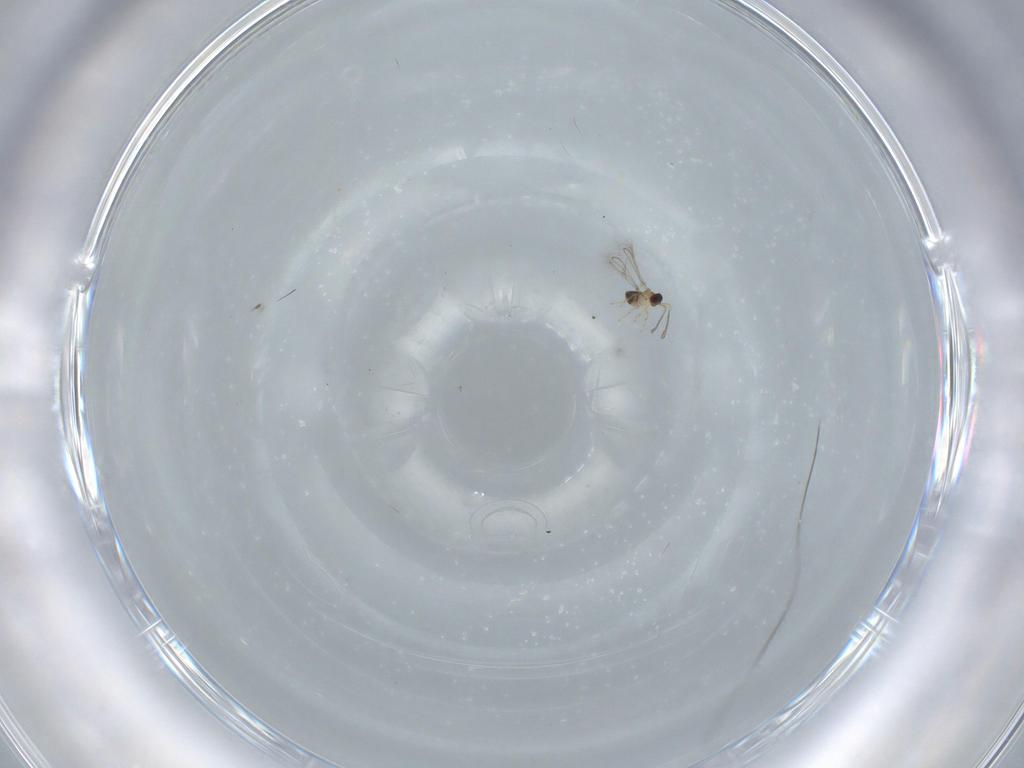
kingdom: Animalia
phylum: Arthropoda
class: Insecta
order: Hymenoptera
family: Mymaridae
